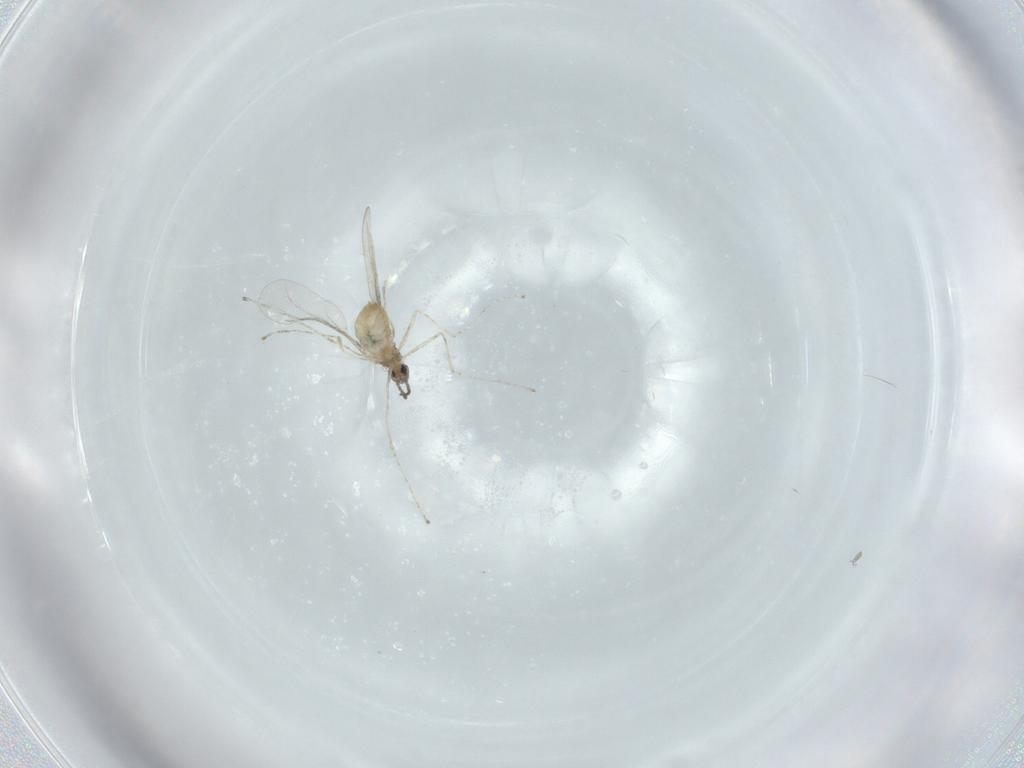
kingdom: Animalia
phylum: Arthropoda
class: Insecta
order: Diptera
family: Cecidomyiidae
